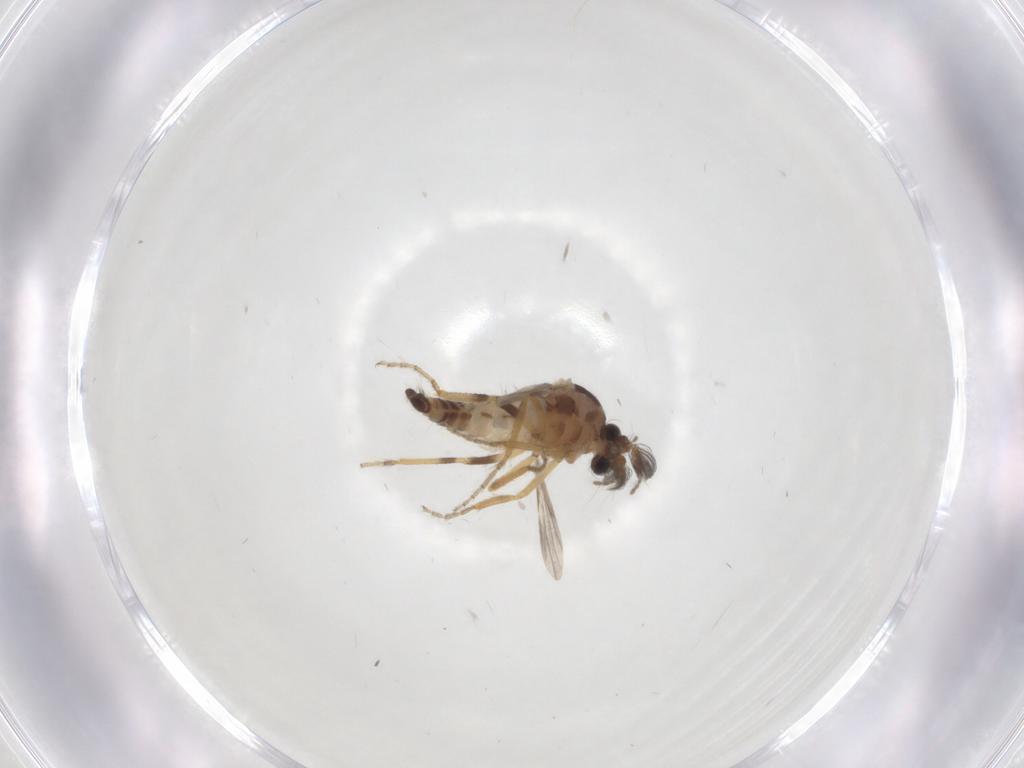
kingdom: Animalia
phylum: Arthropoda
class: Insecta
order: Diptera
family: Ceratopogonidae
